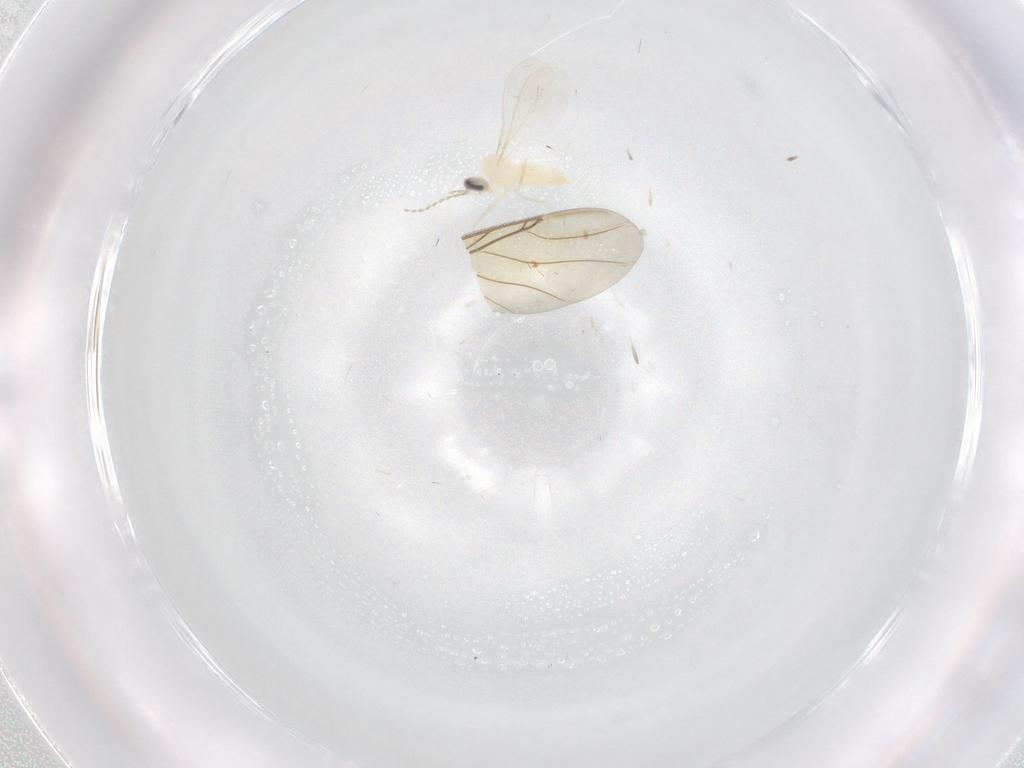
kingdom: Animalia
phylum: Arthropoda
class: Insecta
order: Diptera
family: Cecidomyiidae
